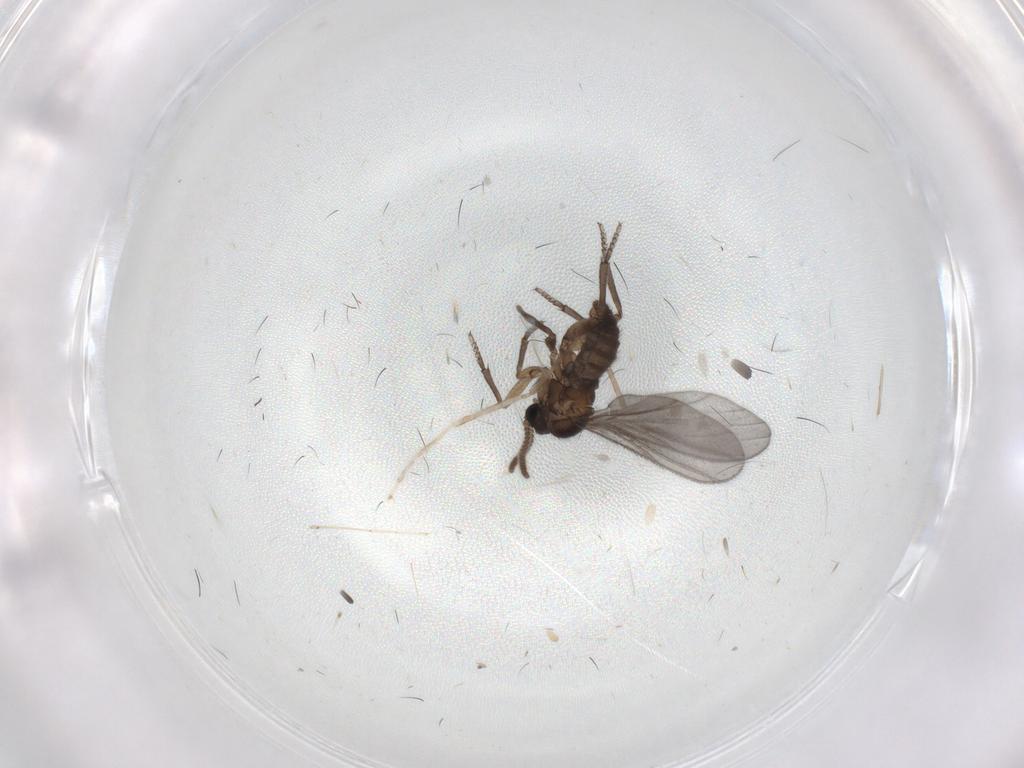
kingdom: Animalia
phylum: Arthropoda
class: Insecta
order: Diptera
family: Sciaridae
